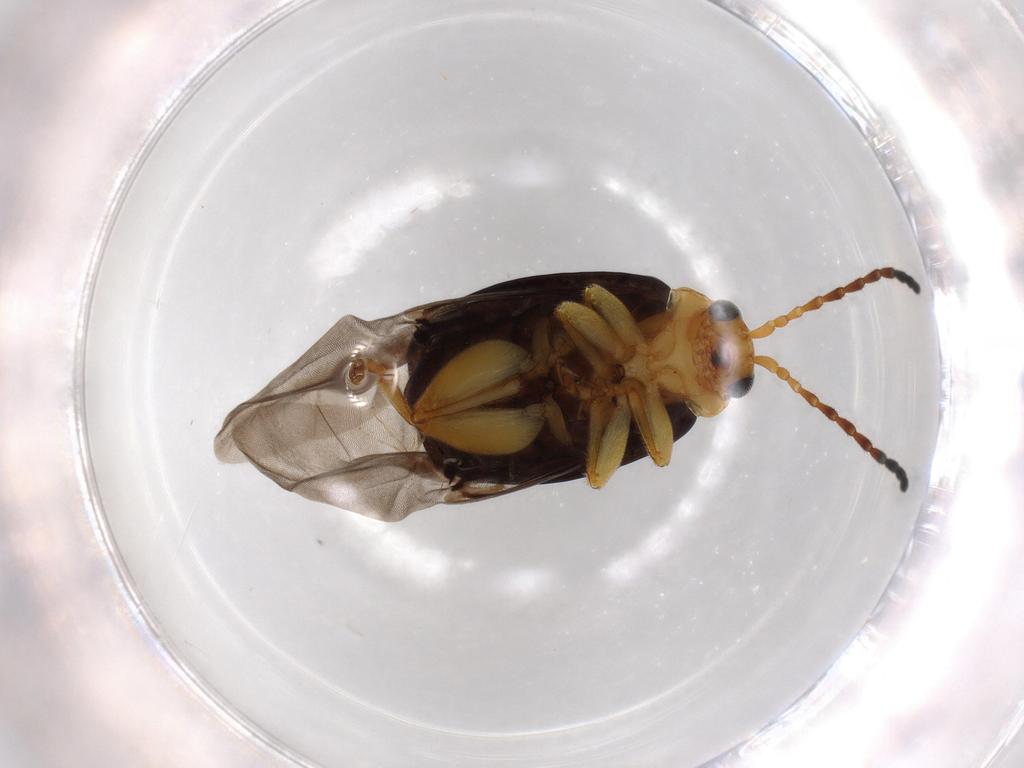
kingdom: Animalia
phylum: Arthropoda
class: Insecta
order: Coleoptera
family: Chrysomelidae
